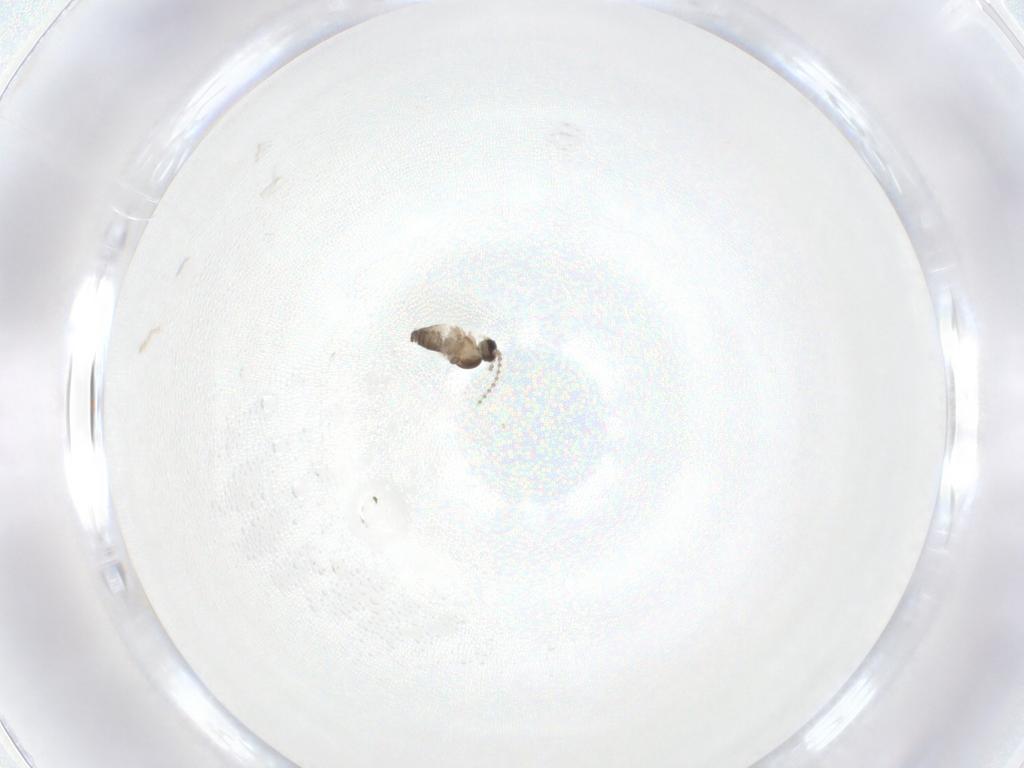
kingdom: Animalia
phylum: Arthropoda
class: Insecta
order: Diptera
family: Cecidomyiidae
